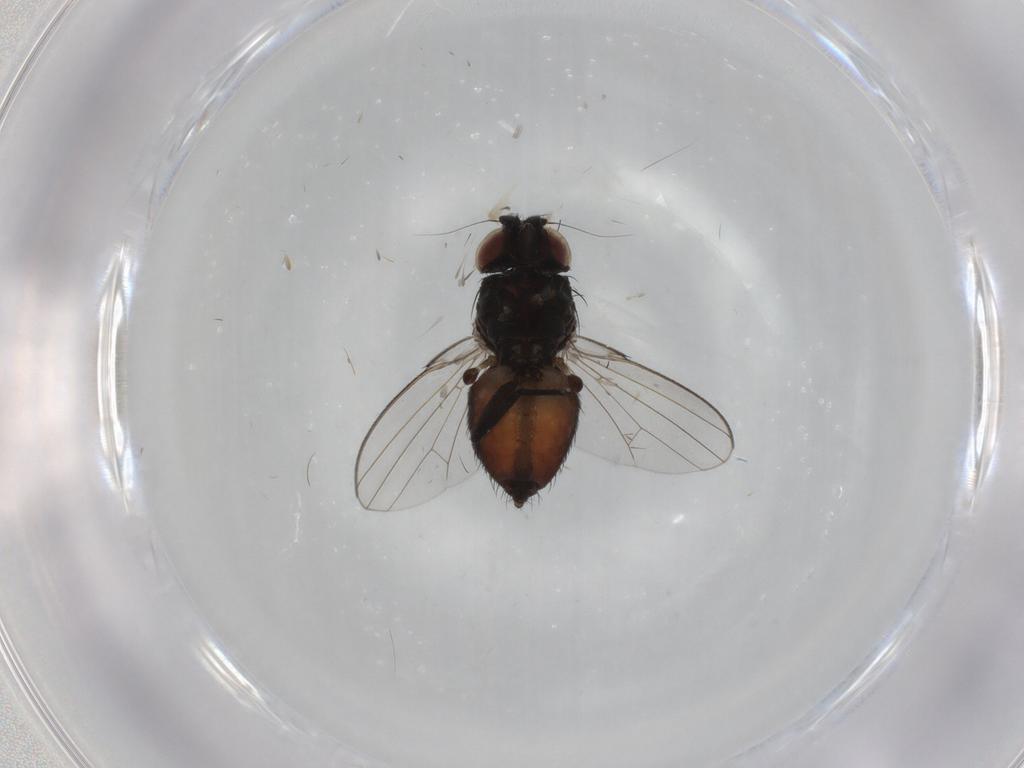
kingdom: Animalia
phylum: Arthropoda
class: Insecta
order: Diptera
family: Milichiidae
